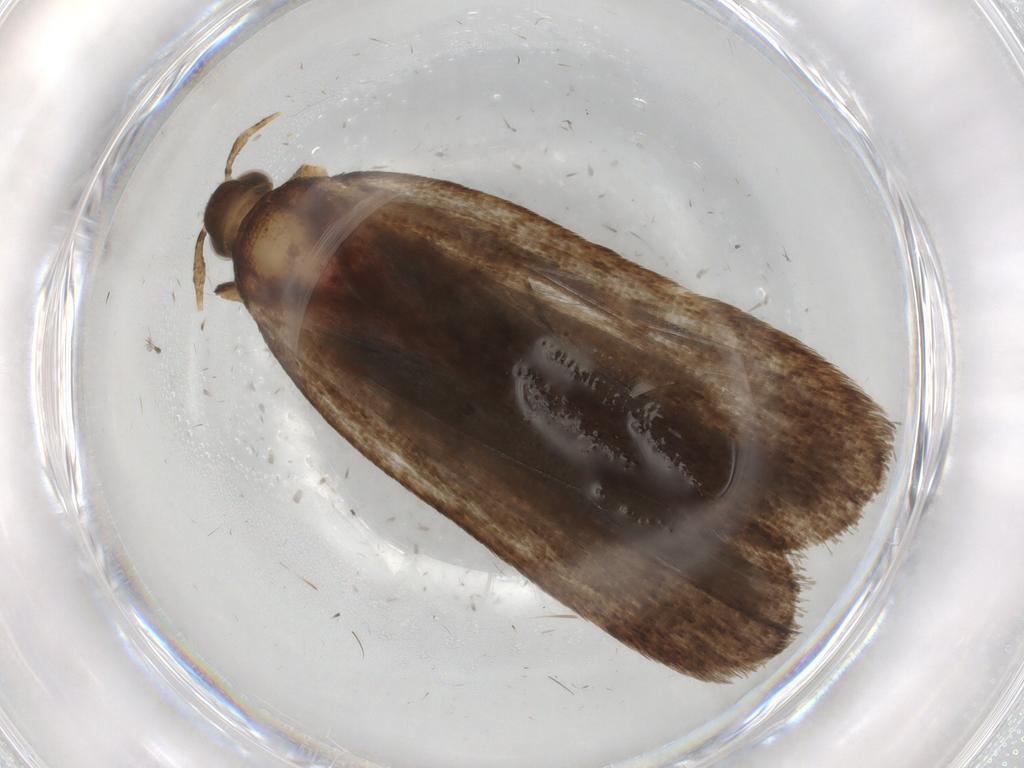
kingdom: Animalia
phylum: Arthropoda
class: Insecta
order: Lepidoptera
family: Autostichidae
